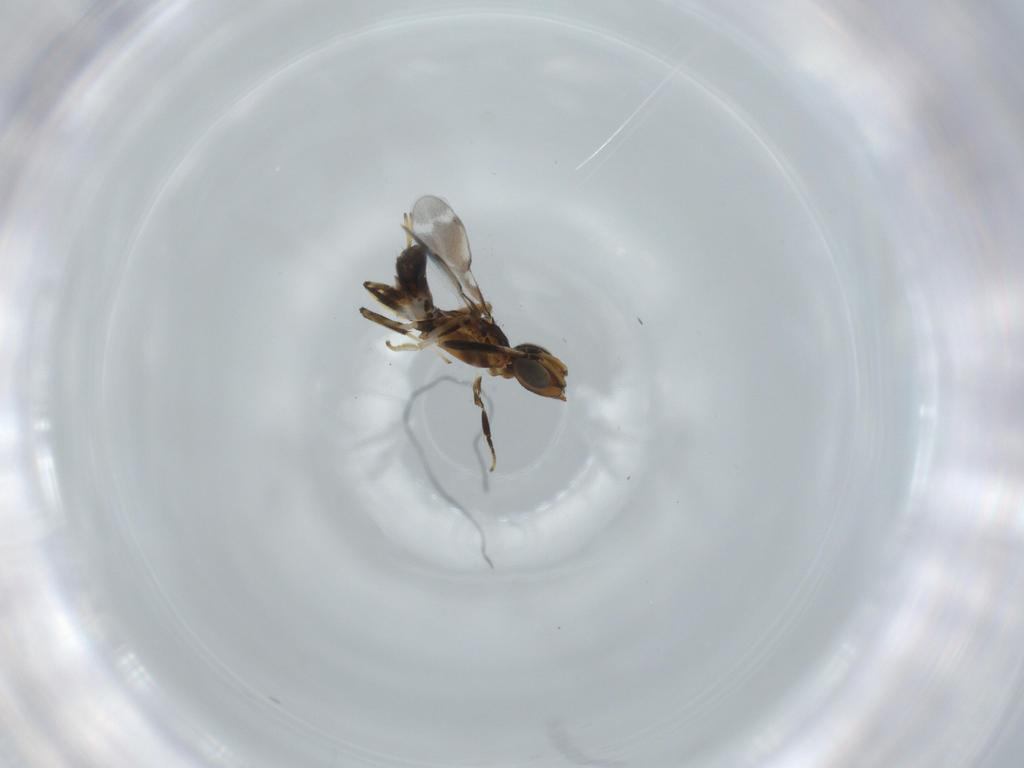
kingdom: Animalia
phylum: Arthropoda
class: Insecta
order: Hymenoptera
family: Eupelmidae
